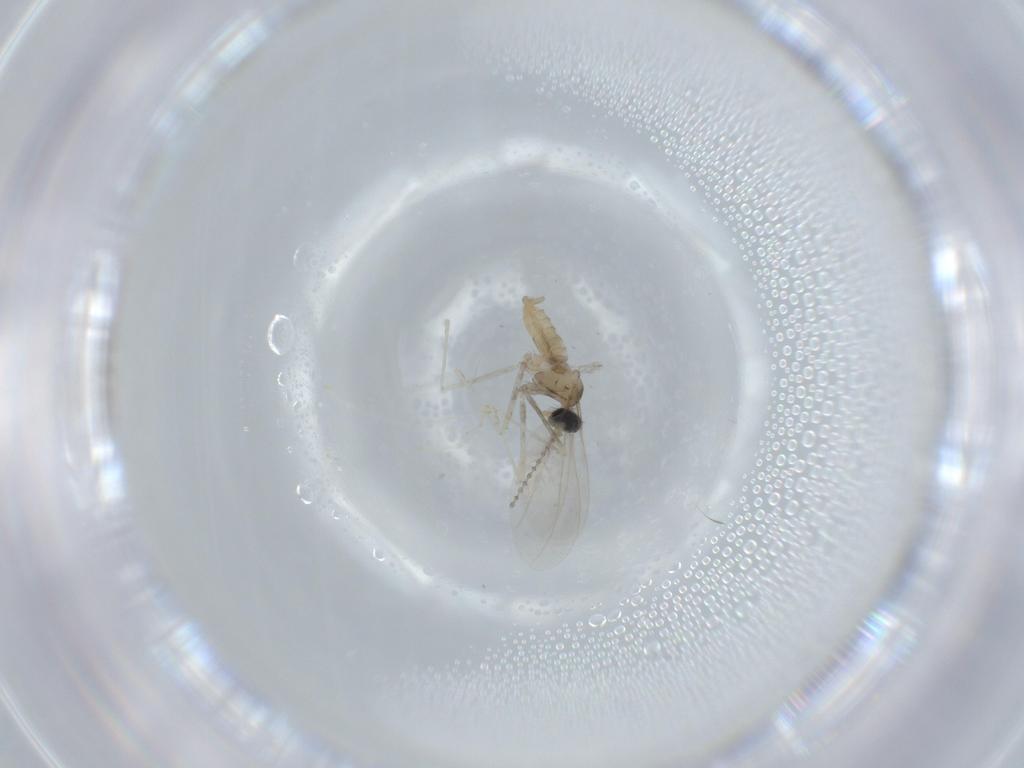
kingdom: Animalia
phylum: Arthropoda
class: Insecta
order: Diptera
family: Cecidomyiidae
